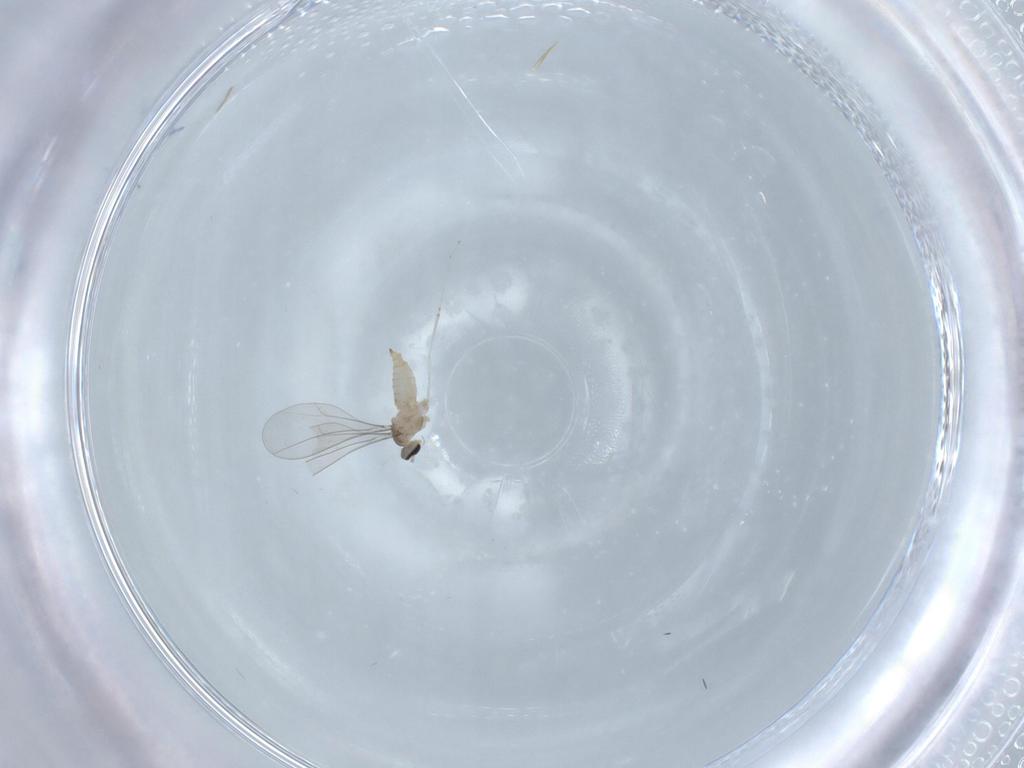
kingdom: Animalia
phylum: Arthropoda
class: Insecta
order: Diptera
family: Cecidomyiidae
